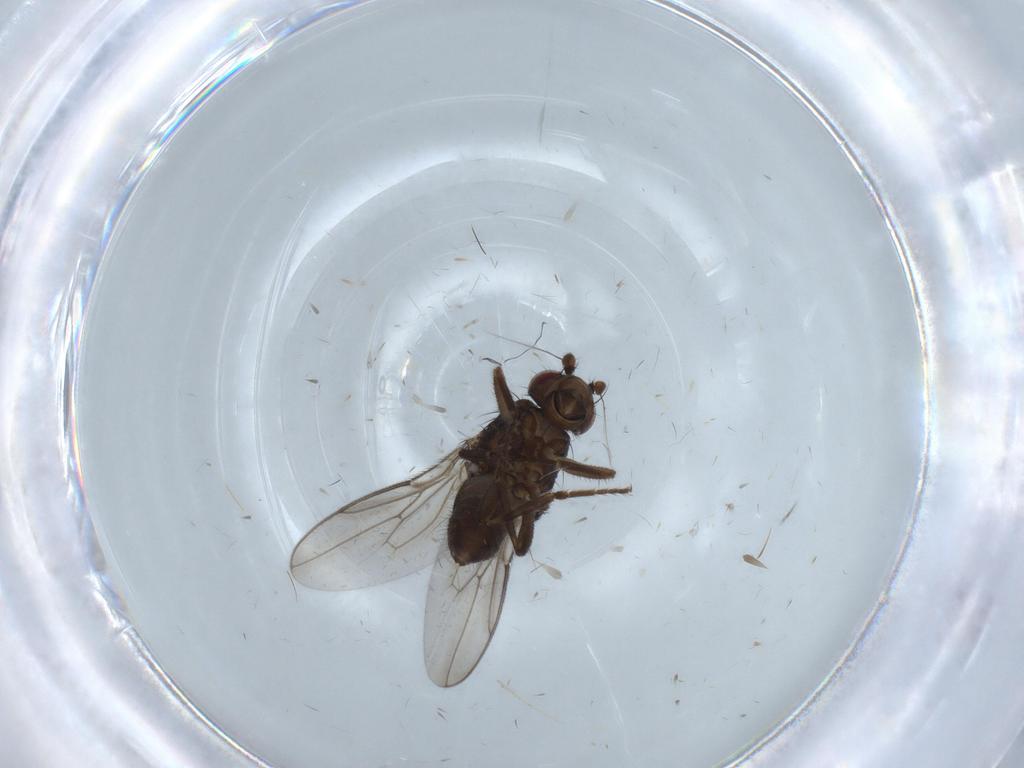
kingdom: Animalia
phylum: Arthropoda
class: Insecta
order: Diptera
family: Sphaeroceridae
